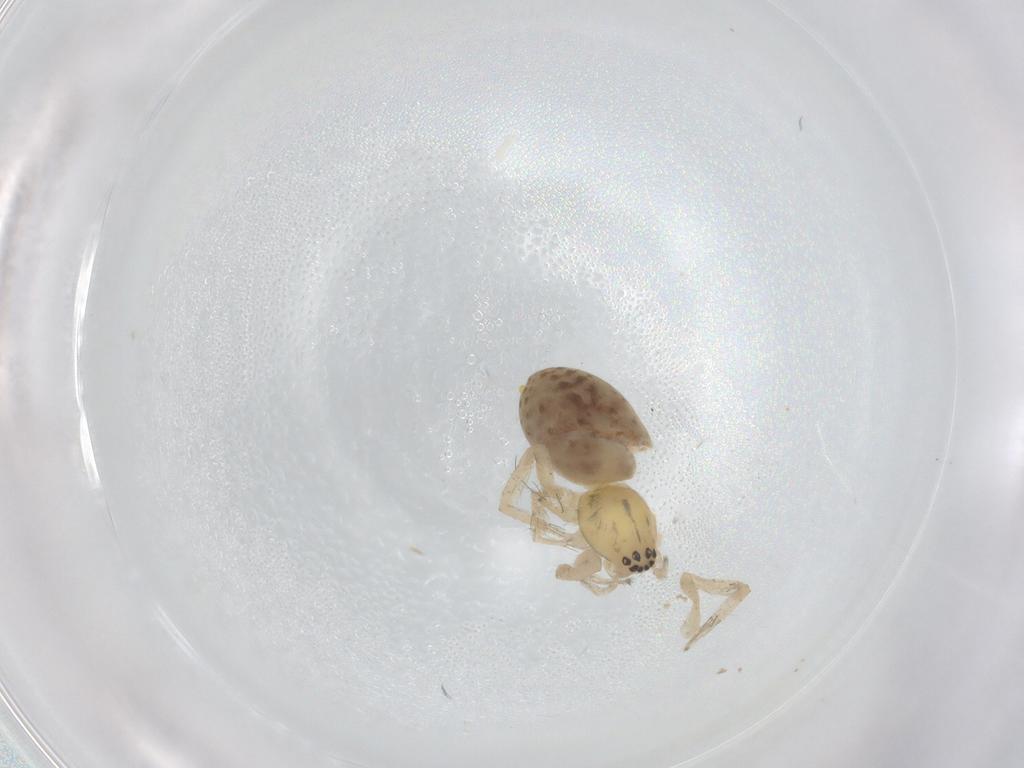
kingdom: Animalia
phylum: Arthropoda
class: Arachnida
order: Araneae
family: Anyphaenidae
